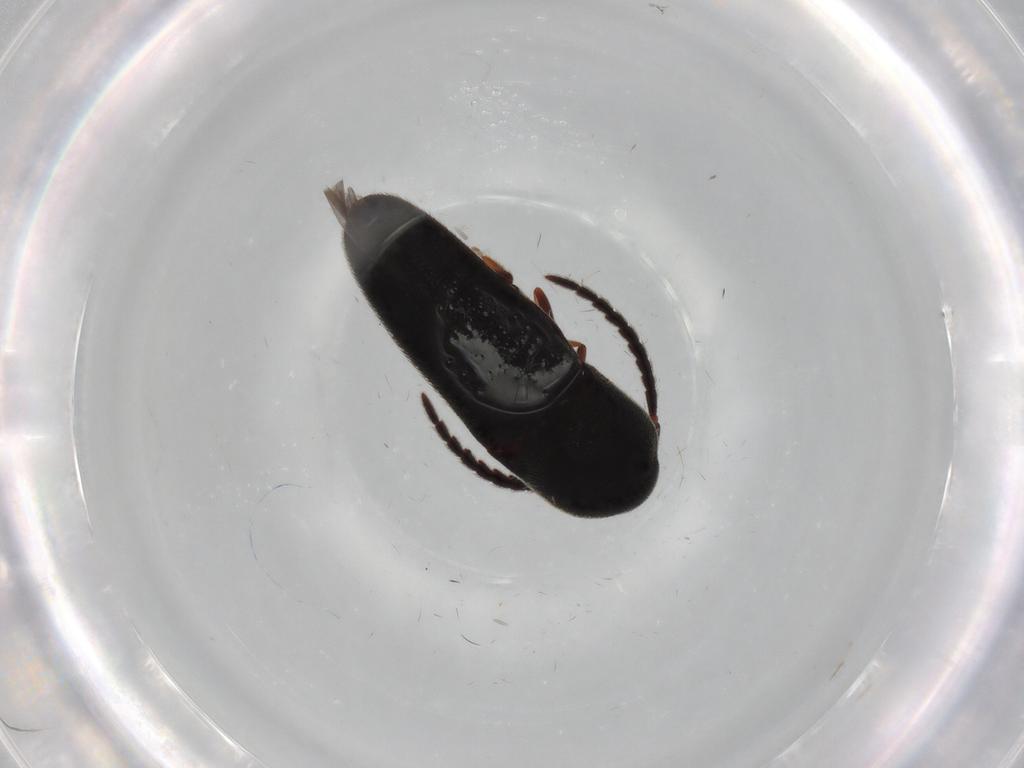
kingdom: Animalia
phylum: Arthropoda
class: Insecta
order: Coleoptera
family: Eucnemidae
